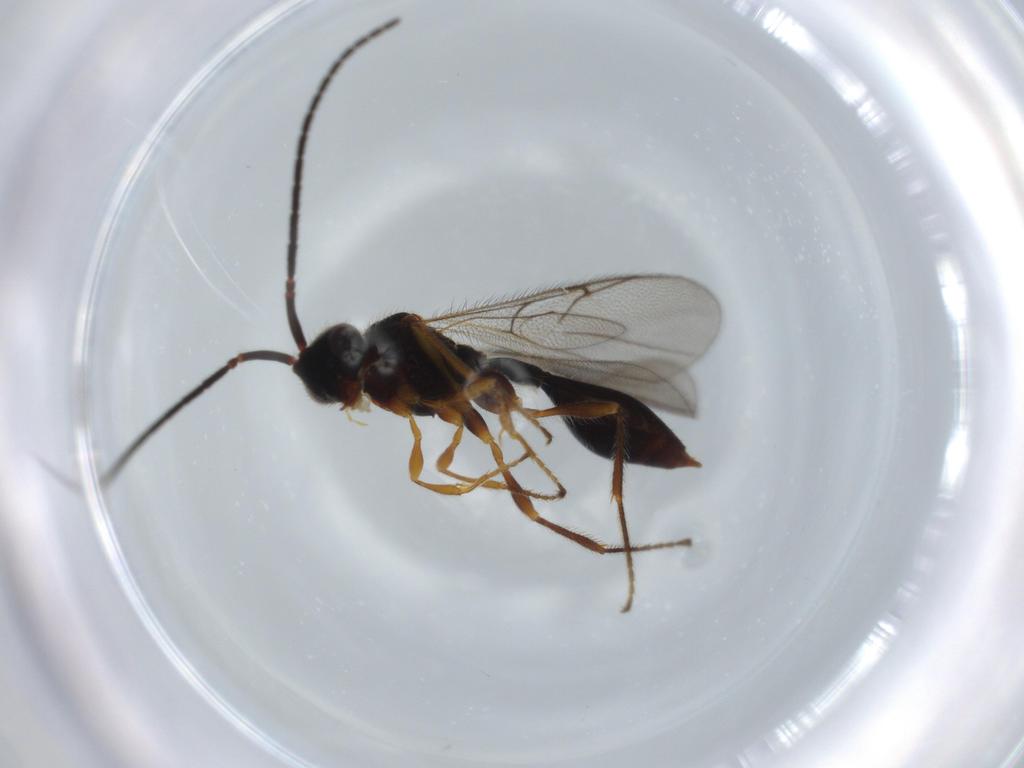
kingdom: Animalia
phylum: Arthropoda
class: Insecta
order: Hymenoptera
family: Diapriidae
